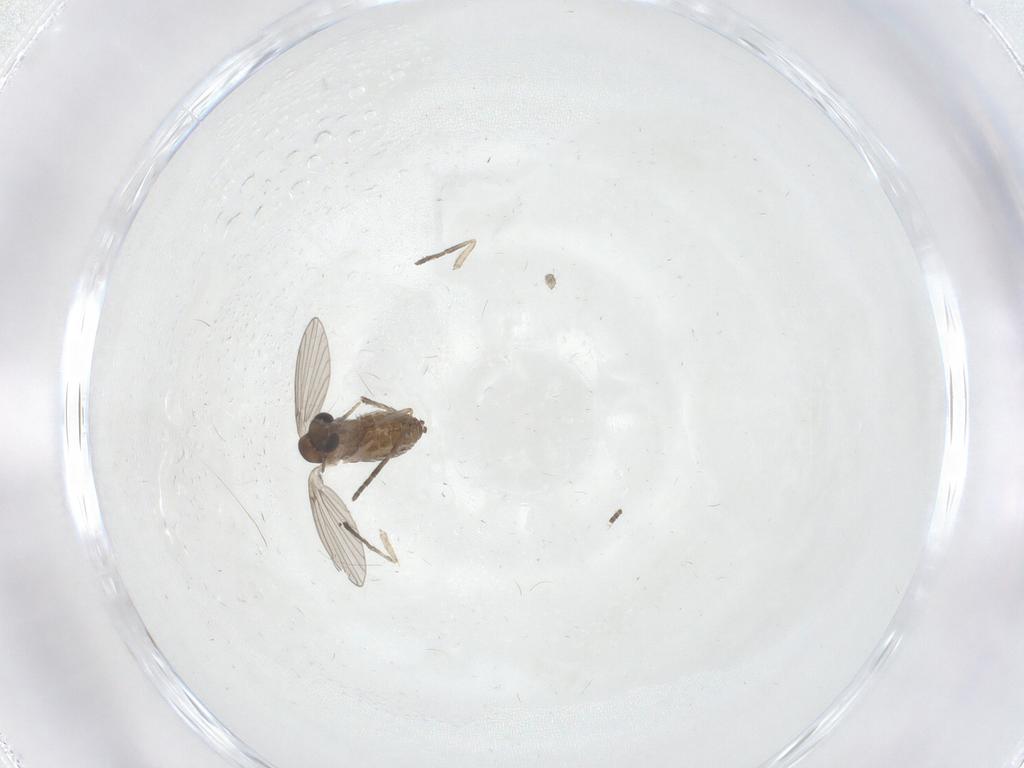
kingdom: Animalia
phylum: Arthropoda
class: Insecta
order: Diptera
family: Psychodidae
